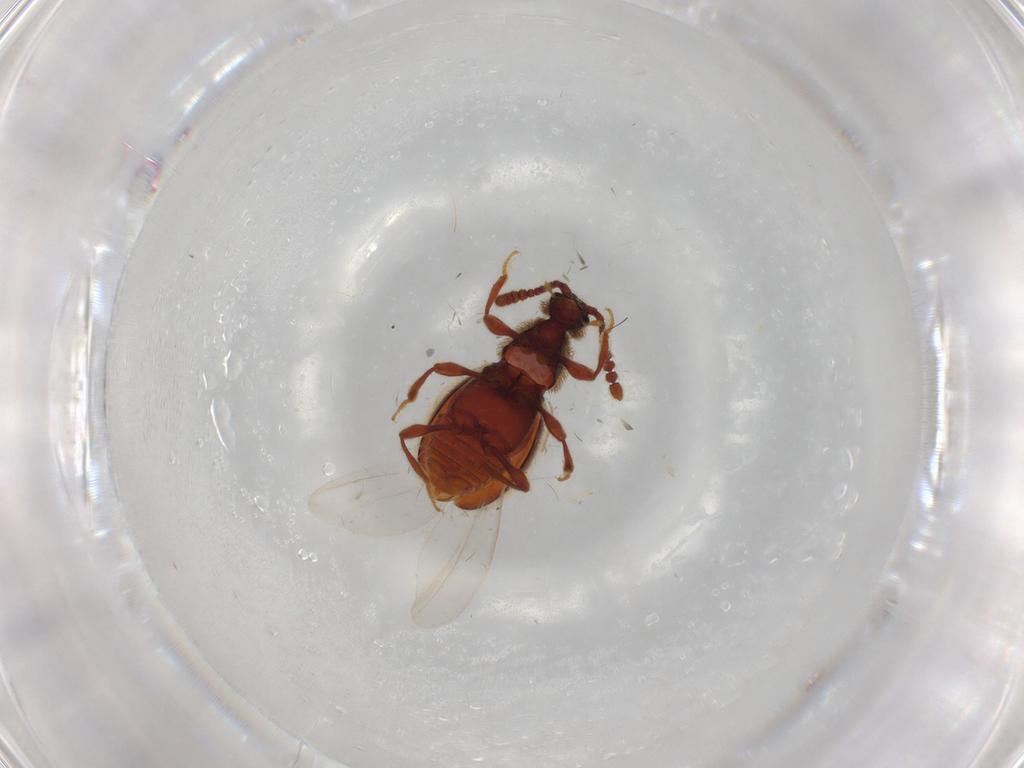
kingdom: Animalia
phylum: Arthropoda
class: Insecta
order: Coleoptera
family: Staphylinidae
